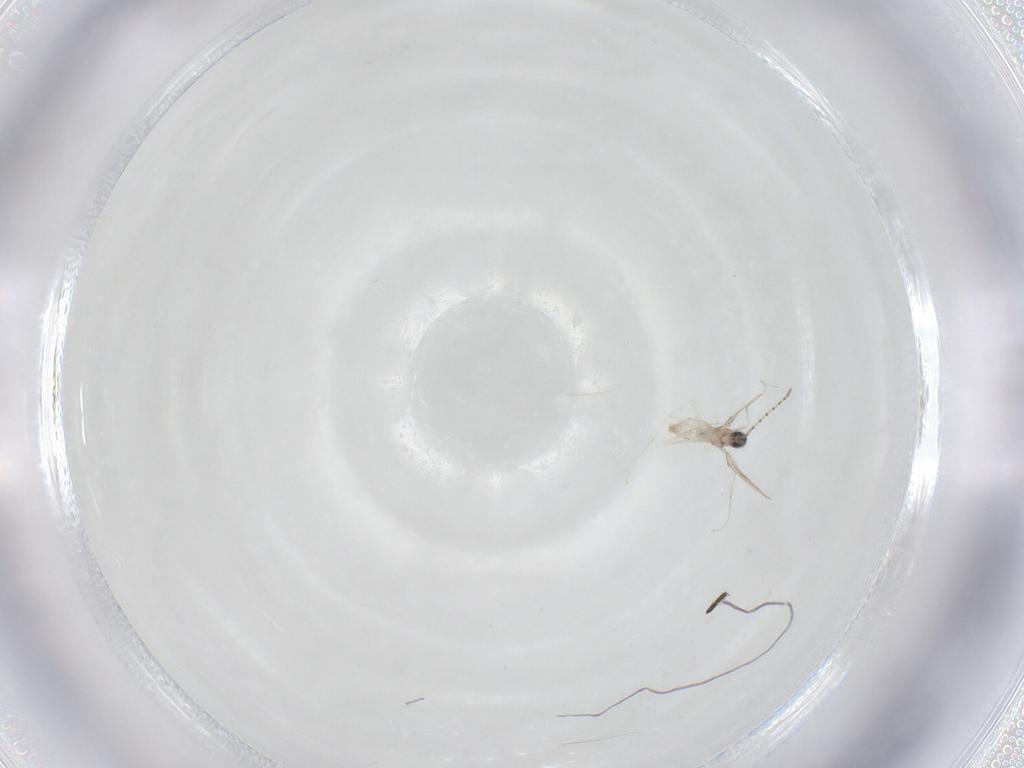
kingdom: Animalia
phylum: Arthropoda
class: Insecta
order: Diptera
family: Cecidomyiidae
